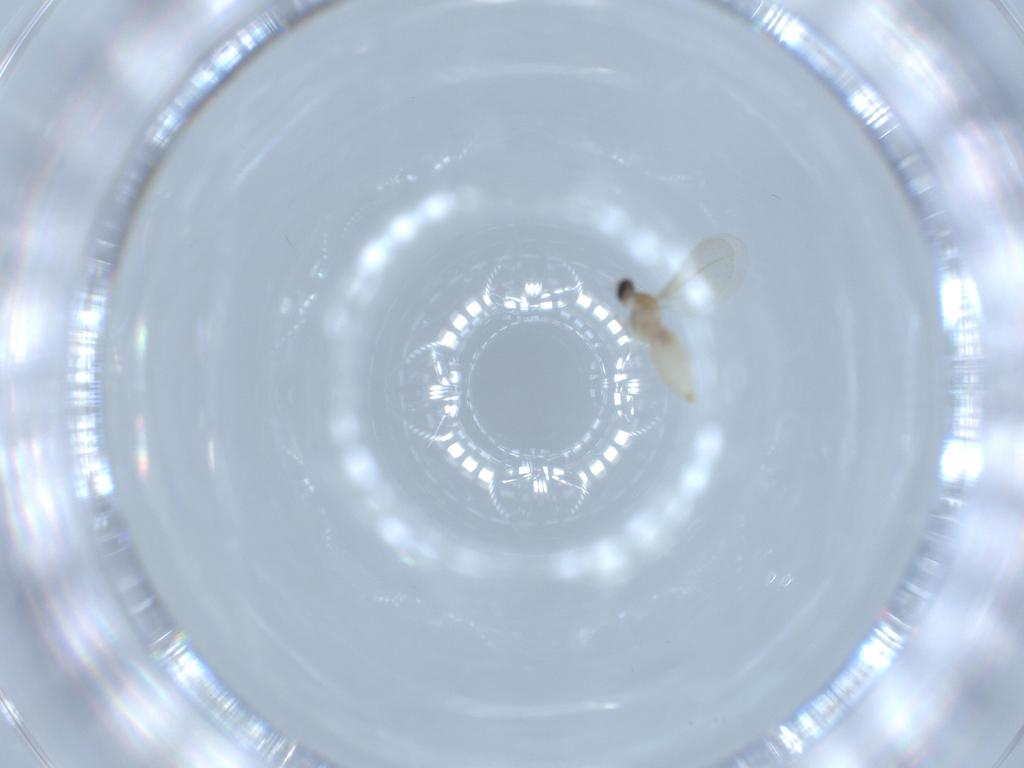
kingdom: Animalia
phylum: Arthropoda
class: Insecta
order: Diptera
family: Cecidomyiidae
